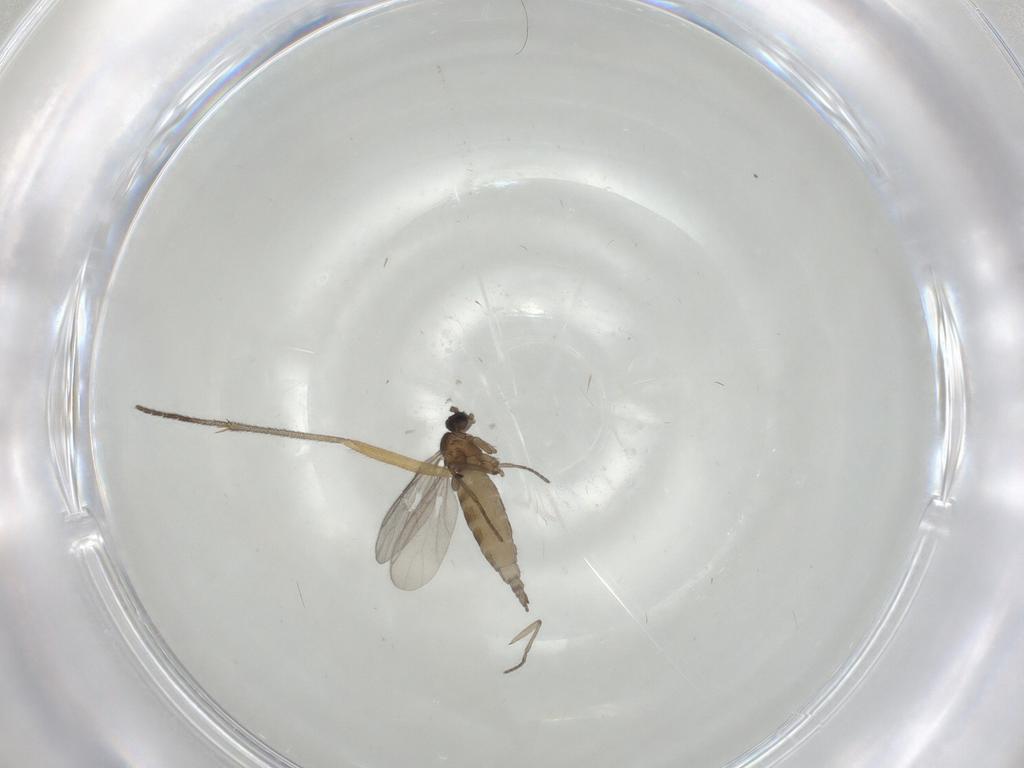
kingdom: Animalia
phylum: Arthropoda
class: Insecta
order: Diptera
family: Sciaridae
